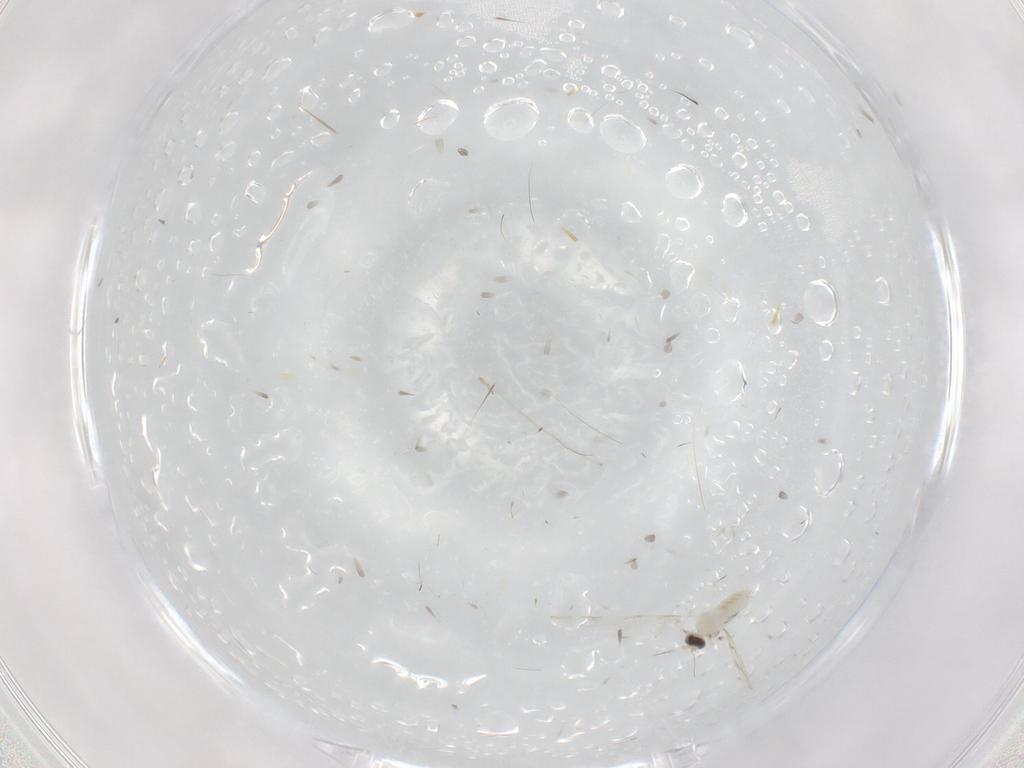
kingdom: Animalia
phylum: Arthropoda
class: Insecta
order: Diptera
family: Cecidomyiidae
